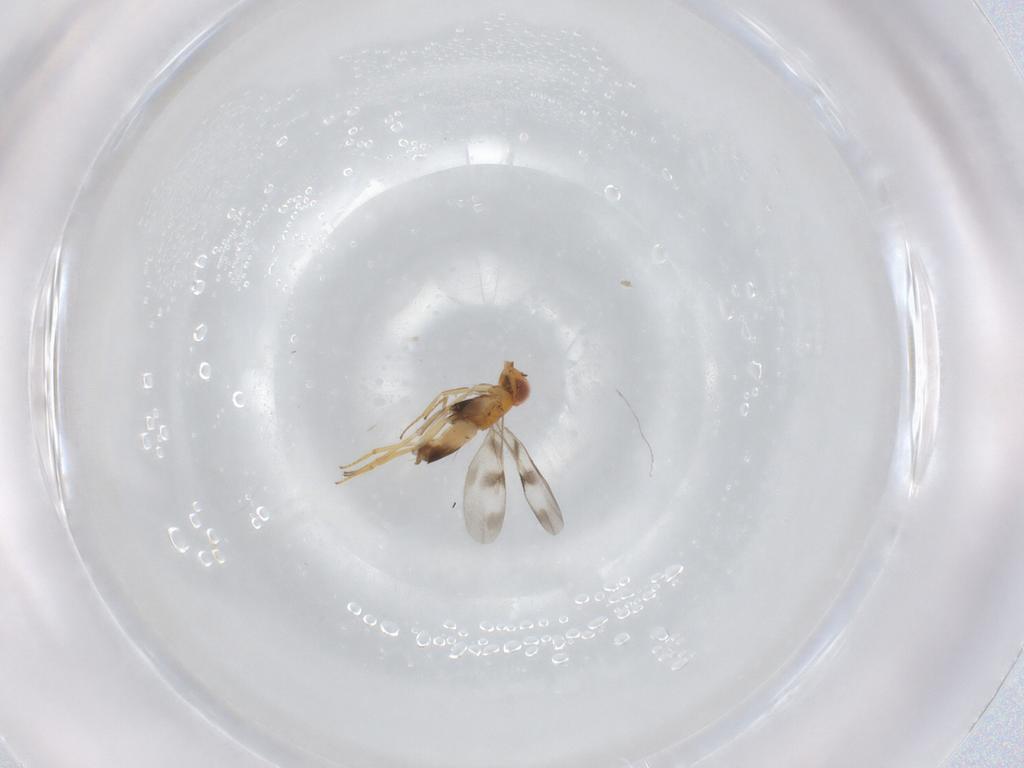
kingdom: Animalia
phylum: Arthropoda
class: Insecta
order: Hymenoptera
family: Encyrtidae
